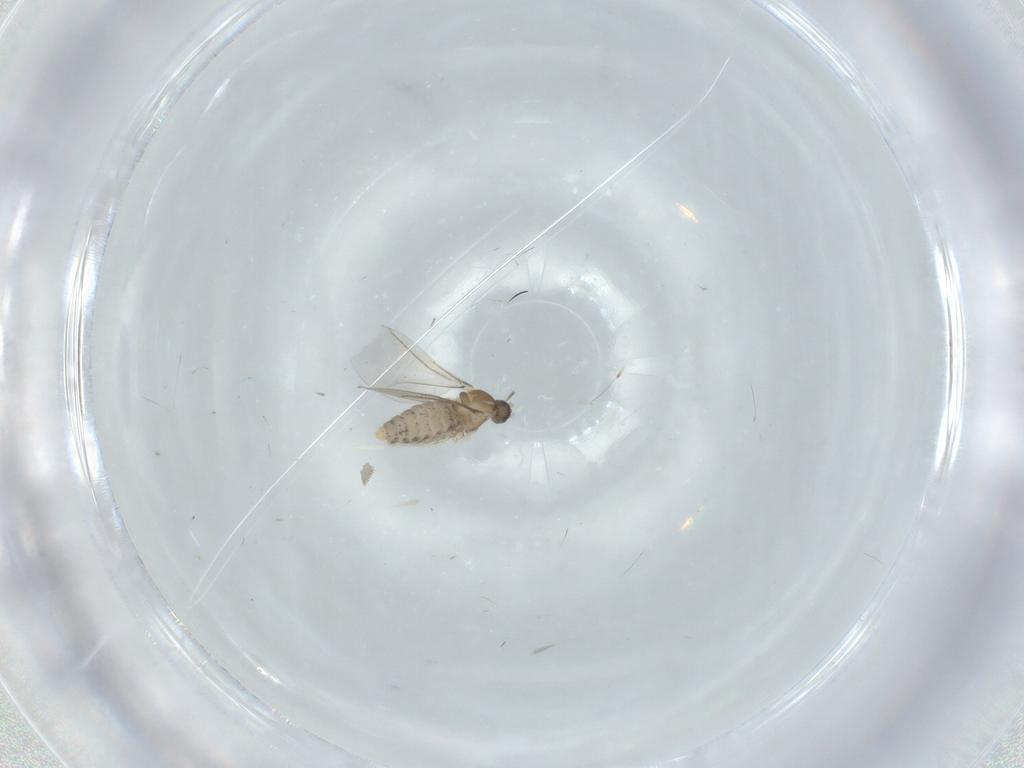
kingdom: Animalia
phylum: Arthropoda
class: Insecta
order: Diptera
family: Cecidomyiidae
